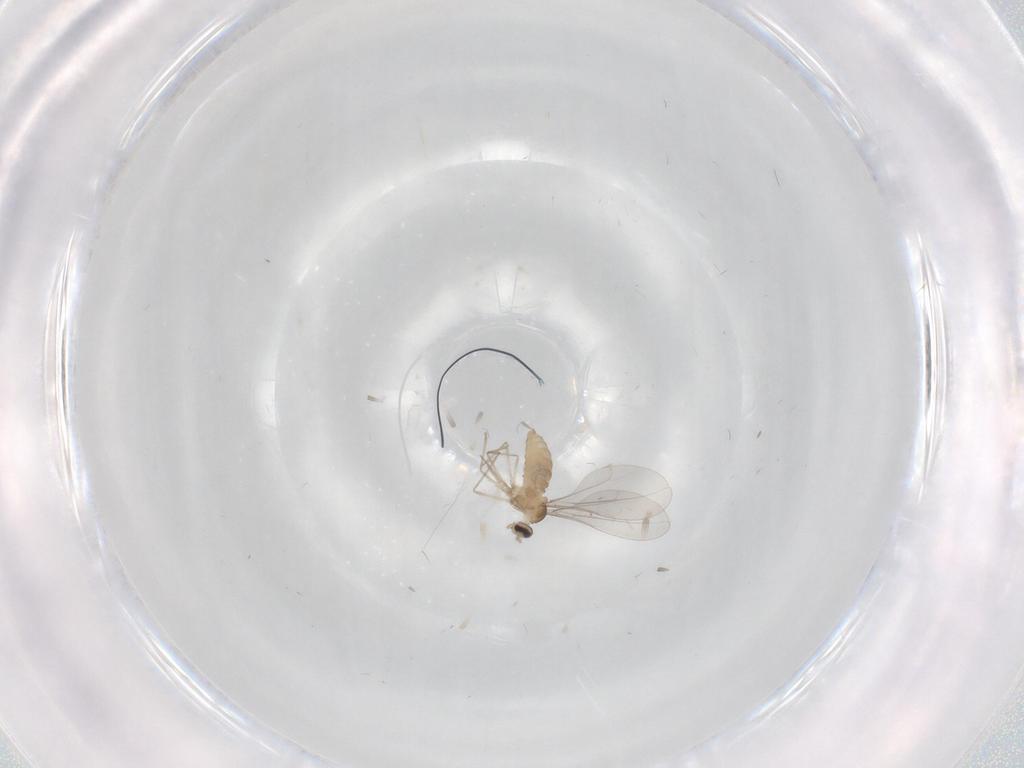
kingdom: Animalia
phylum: Arthropoda
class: Insecta
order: Diptera
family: Cecidomyiidae
